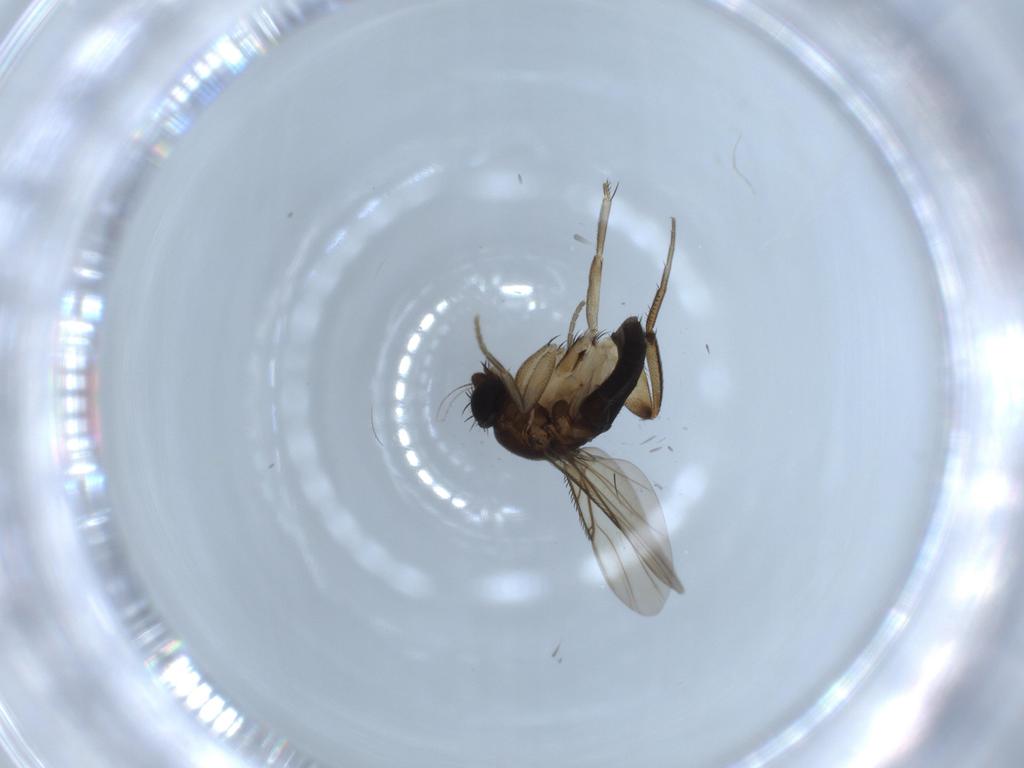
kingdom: Animalia
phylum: Arthropoda
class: Insecta
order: Diptera
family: Phoridae
